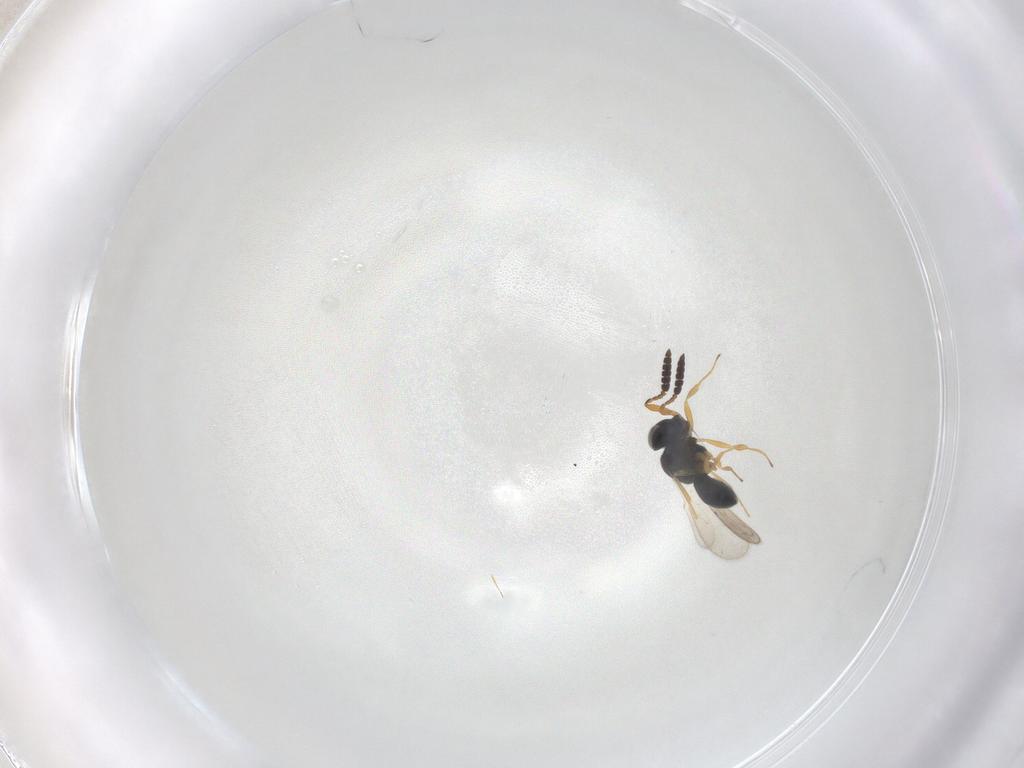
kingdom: Animalia
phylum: Arthropoda
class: Insecta
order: Hymenoptera
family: Scelionidae
